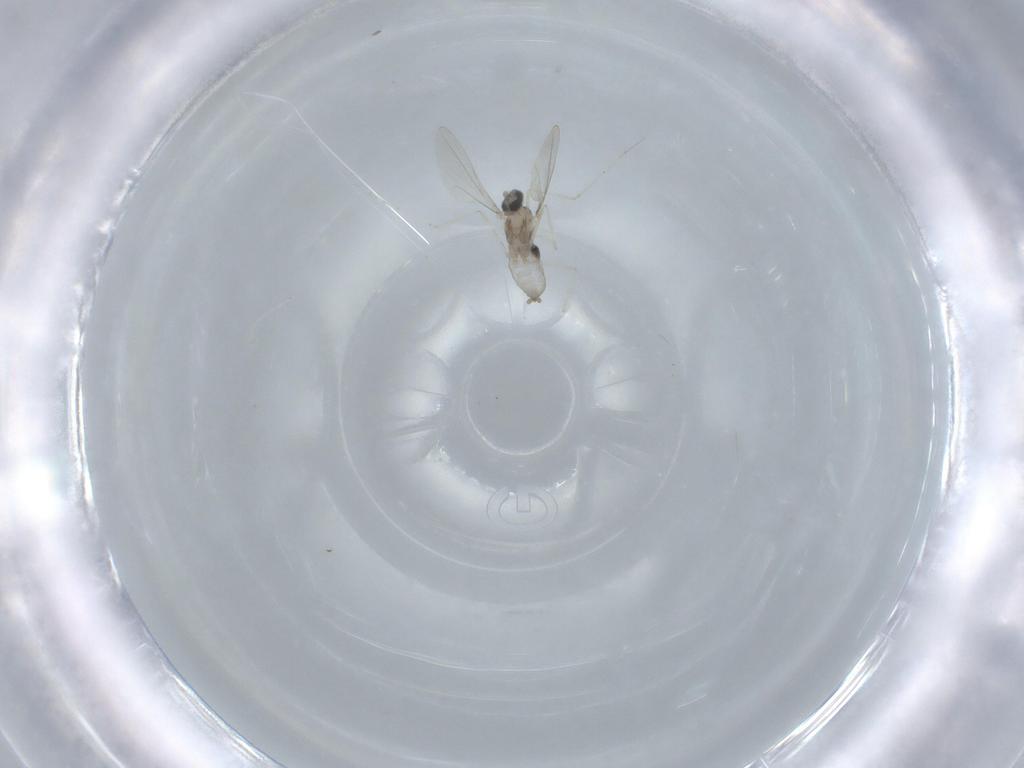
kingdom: Animalia
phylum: Arthropoda
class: Insecta
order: Diptera
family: Cecidomyiidae
